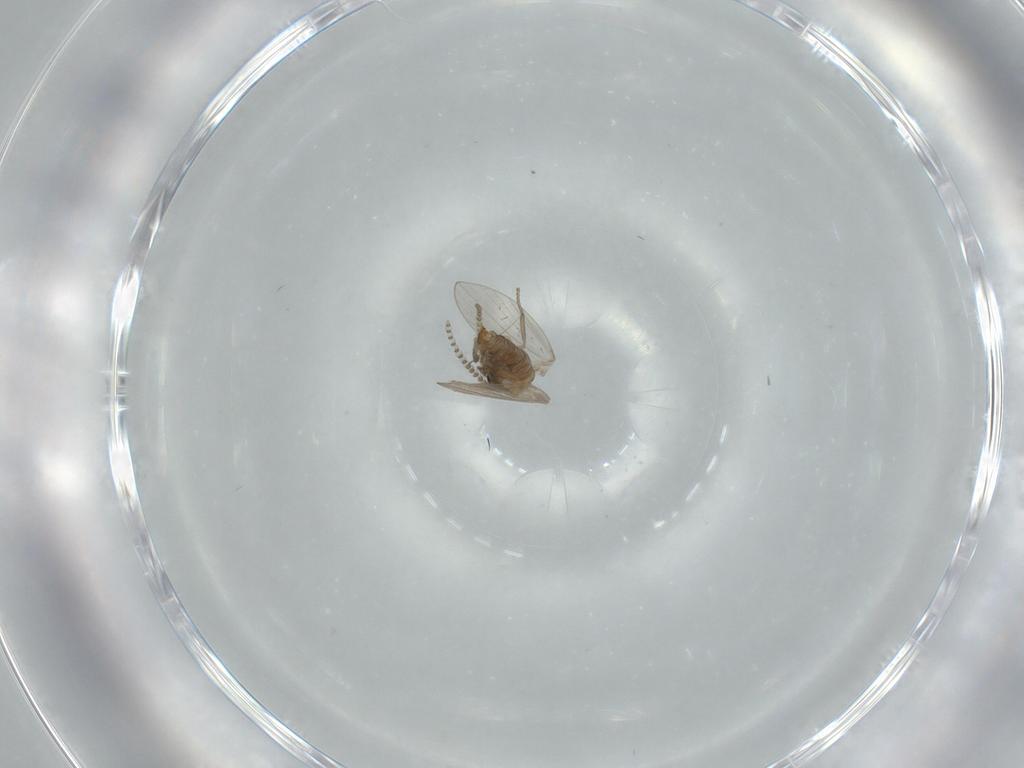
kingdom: Animalia
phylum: Arthropoda
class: Insecta
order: Diptera
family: Psychodidae
